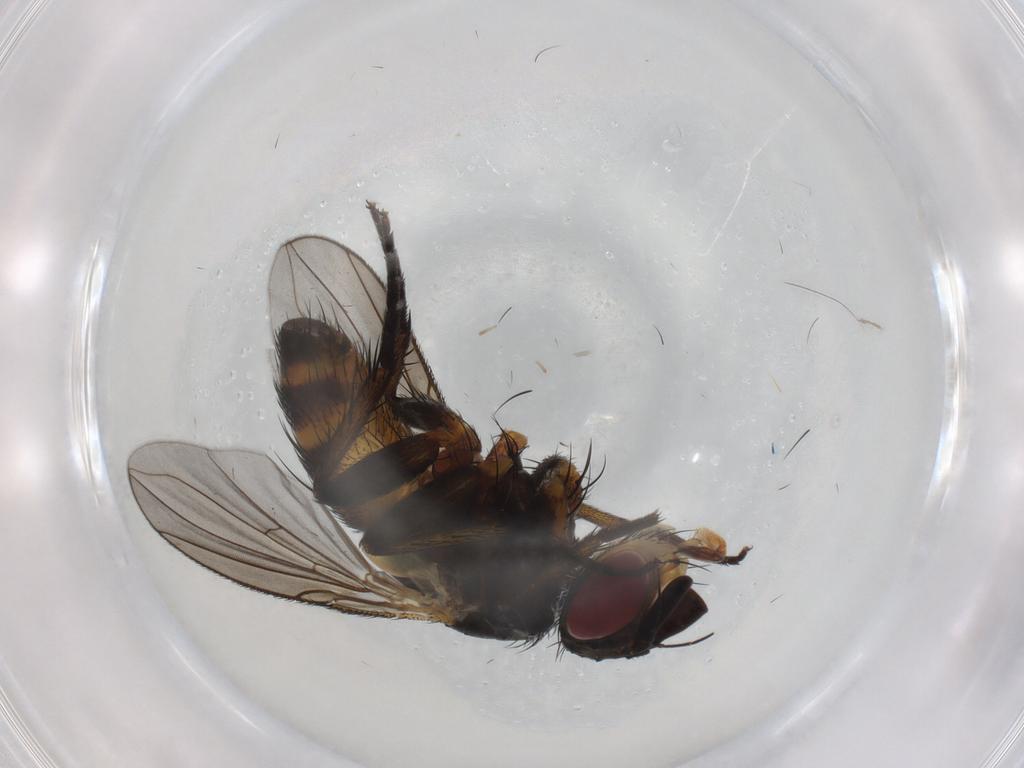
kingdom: Animalia
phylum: Arthropoda
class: Insecta
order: Diptera
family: Tachinidae
